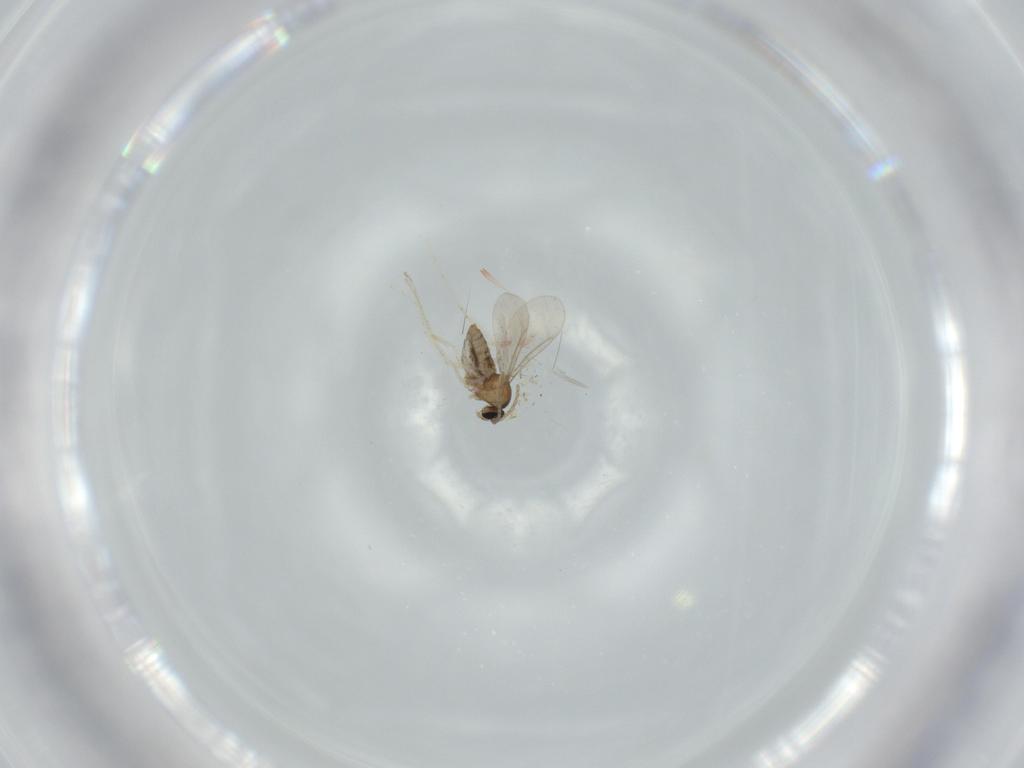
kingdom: Animalia
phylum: Arthropoda
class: Insecta
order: Diptera
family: Cecidomyiidae
